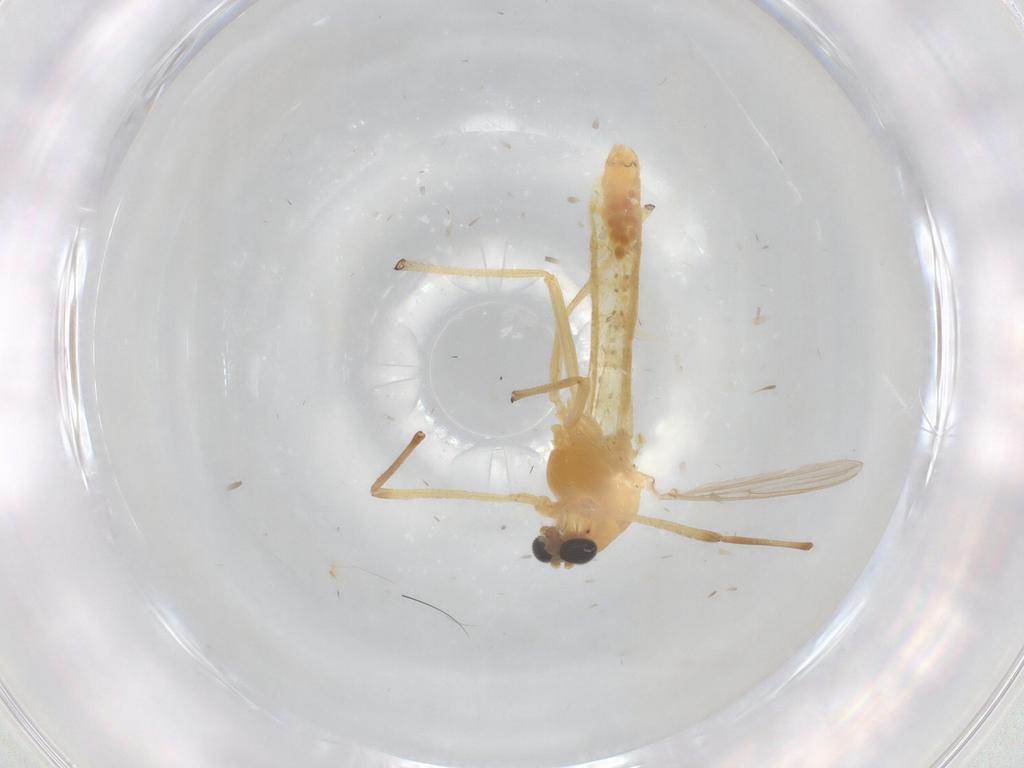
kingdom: Animalia
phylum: Arthropoda
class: Insecta
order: Diptera
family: Chironomidae
